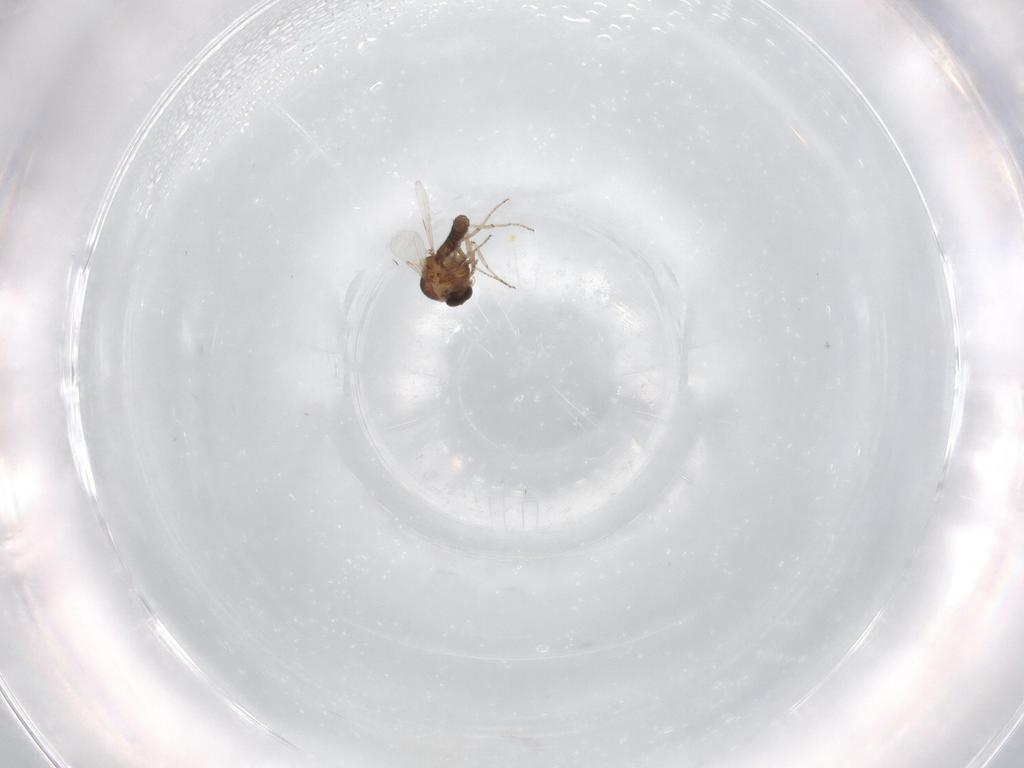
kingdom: Animalia
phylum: Arthropoda
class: Insecta
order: Diptera
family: Ceratopogonidae
